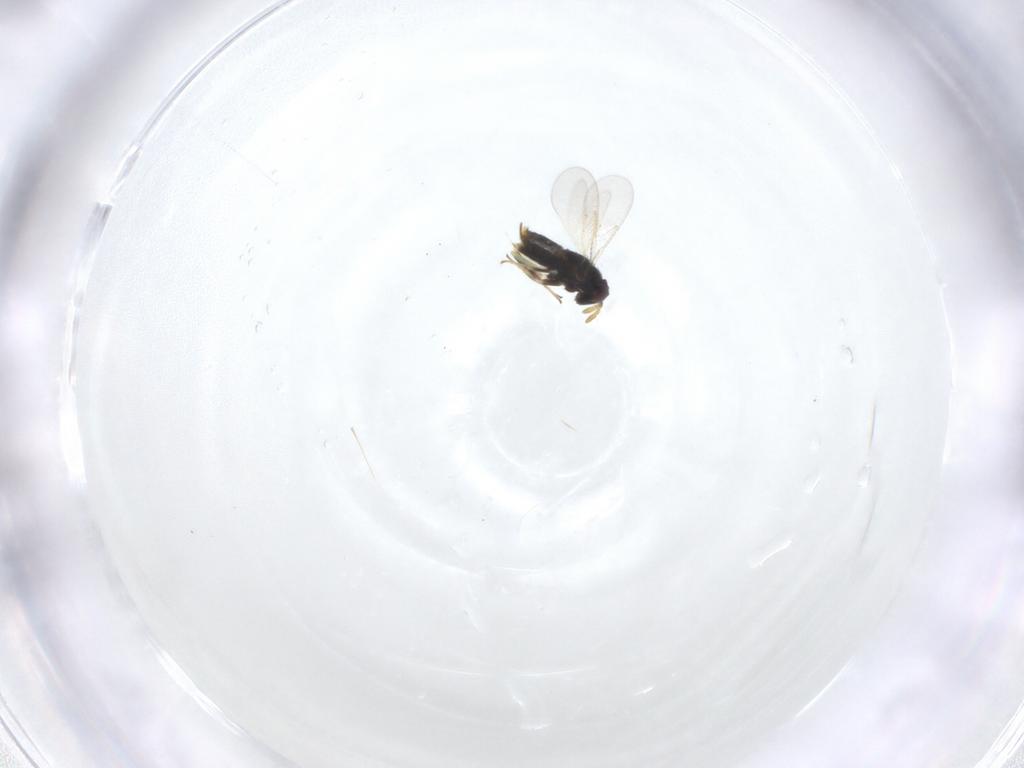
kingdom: Animalia
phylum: Arthropoda
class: Insecta
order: Hymenoptera
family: Aphelinidae
